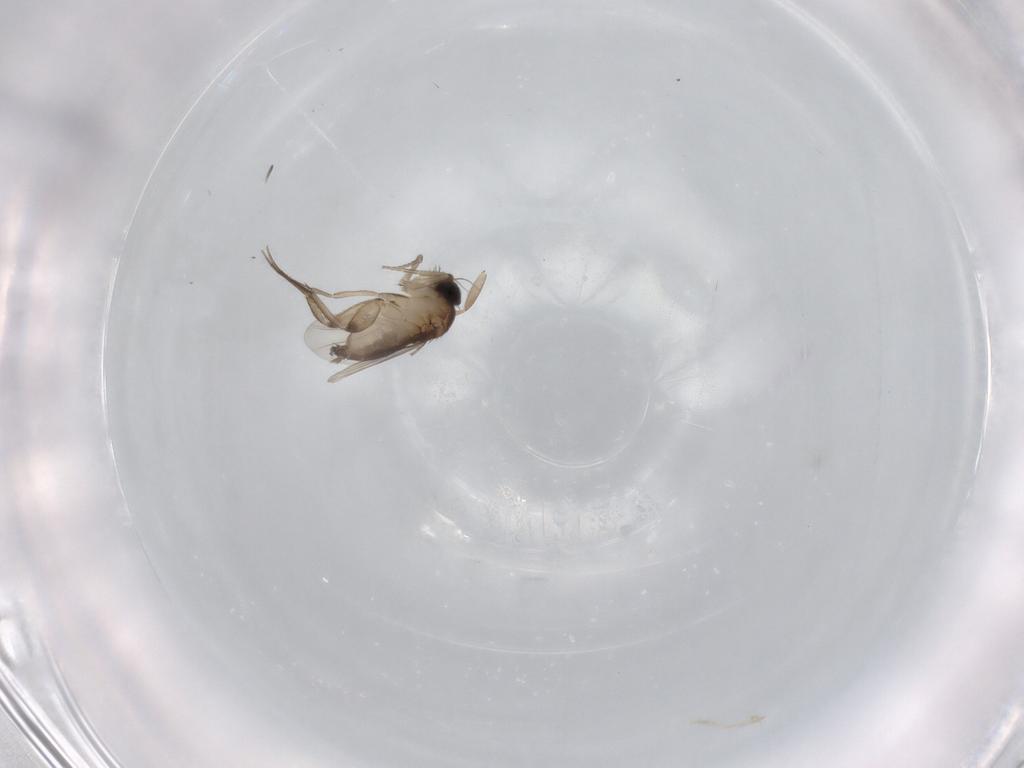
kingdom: Animalia
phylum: Arthropoda
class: Insecta
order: Diptera
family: Phoridae
